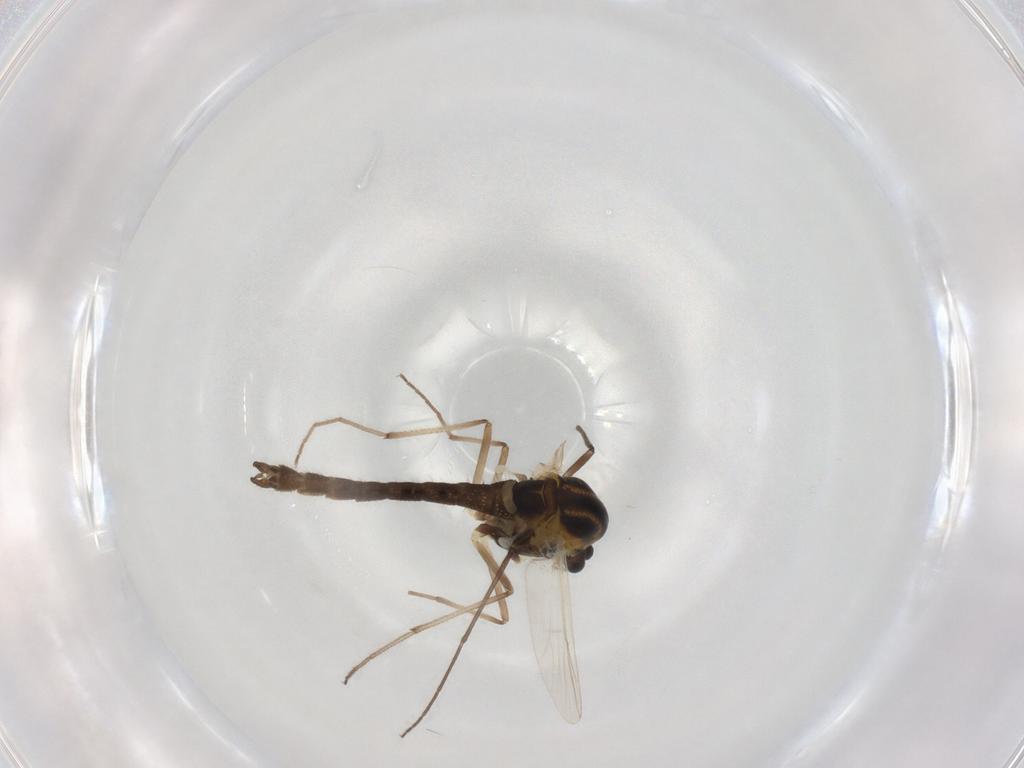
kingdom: Animalia
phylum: Arthropoda
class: Insecta
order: Diptera
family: Chironomidae
